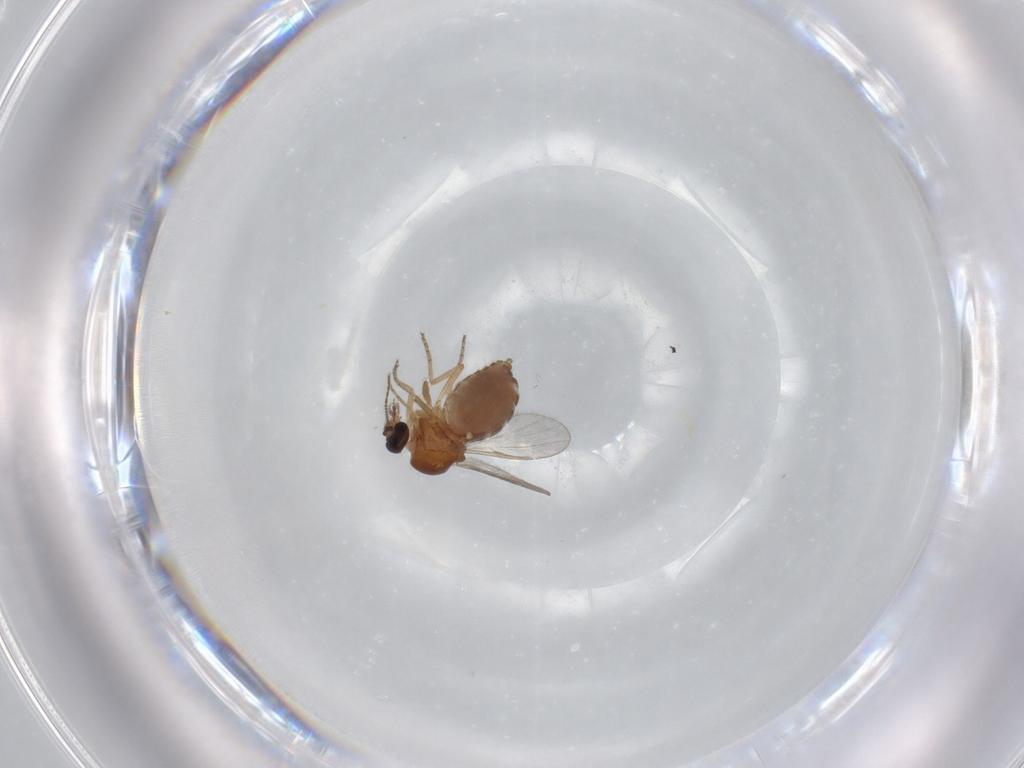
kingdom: Animalia
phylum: Arthropoda
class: Insecta
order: Diptera
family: Ceratopogonidae
